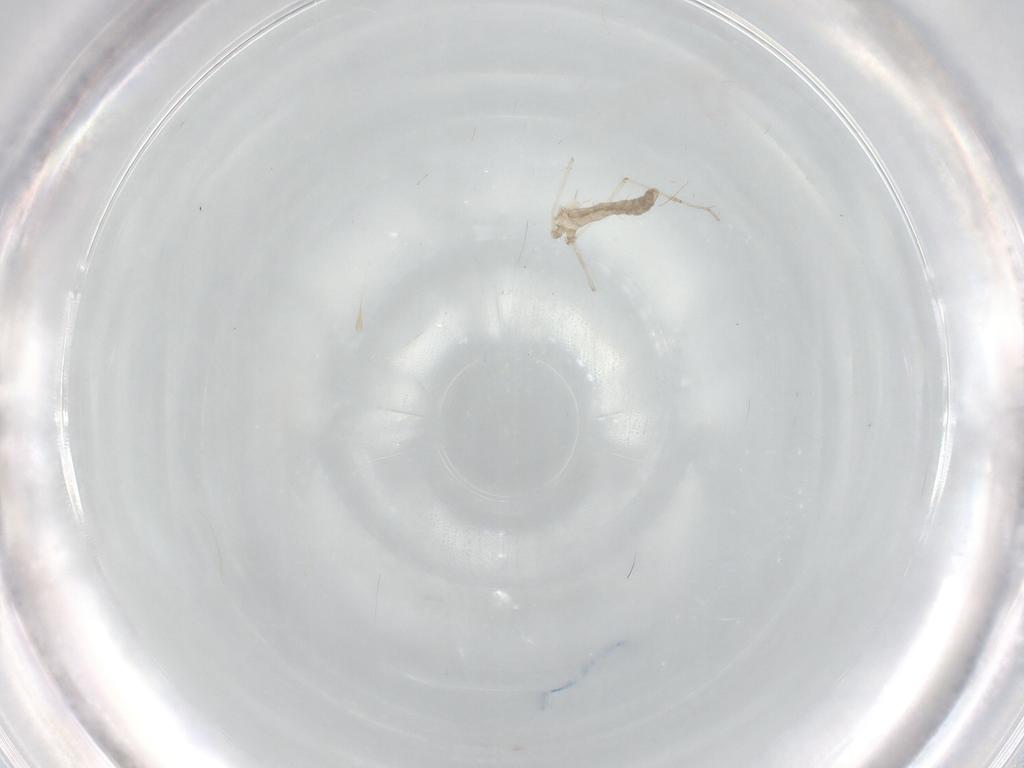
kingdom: Animalia
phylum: Arthropoda
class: Insecta
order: Diptera
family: Cecidomyiidae
